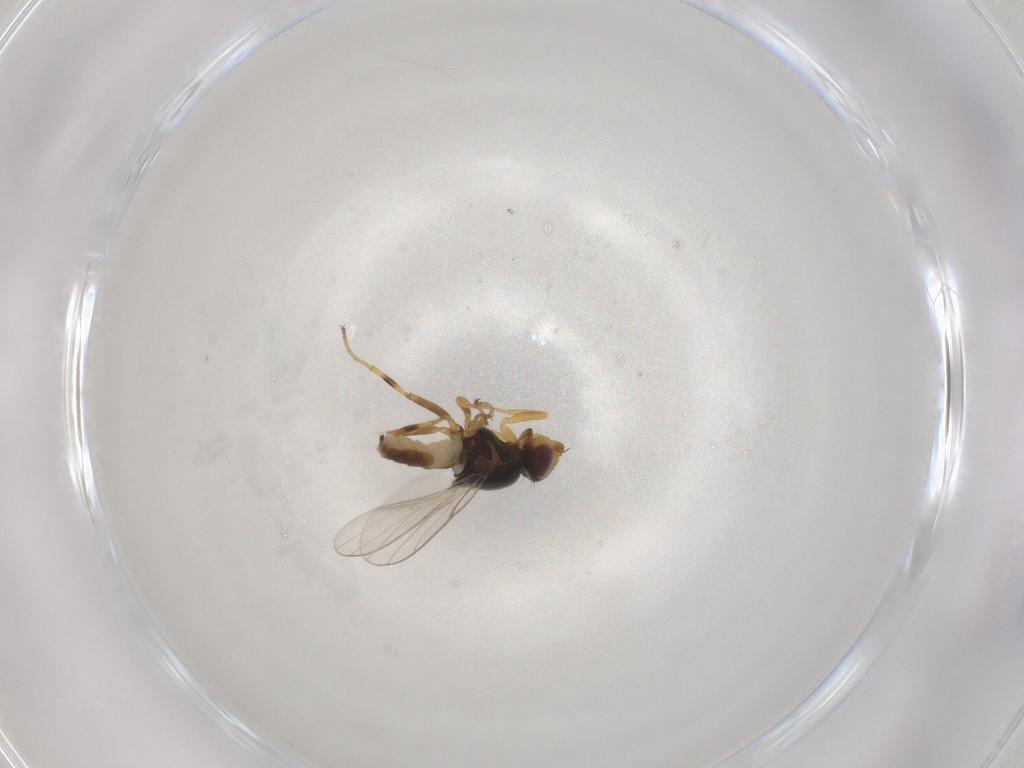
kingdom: Animalia
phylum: Arthropoda
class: Insecta
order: Diptera
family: Chloropidae
